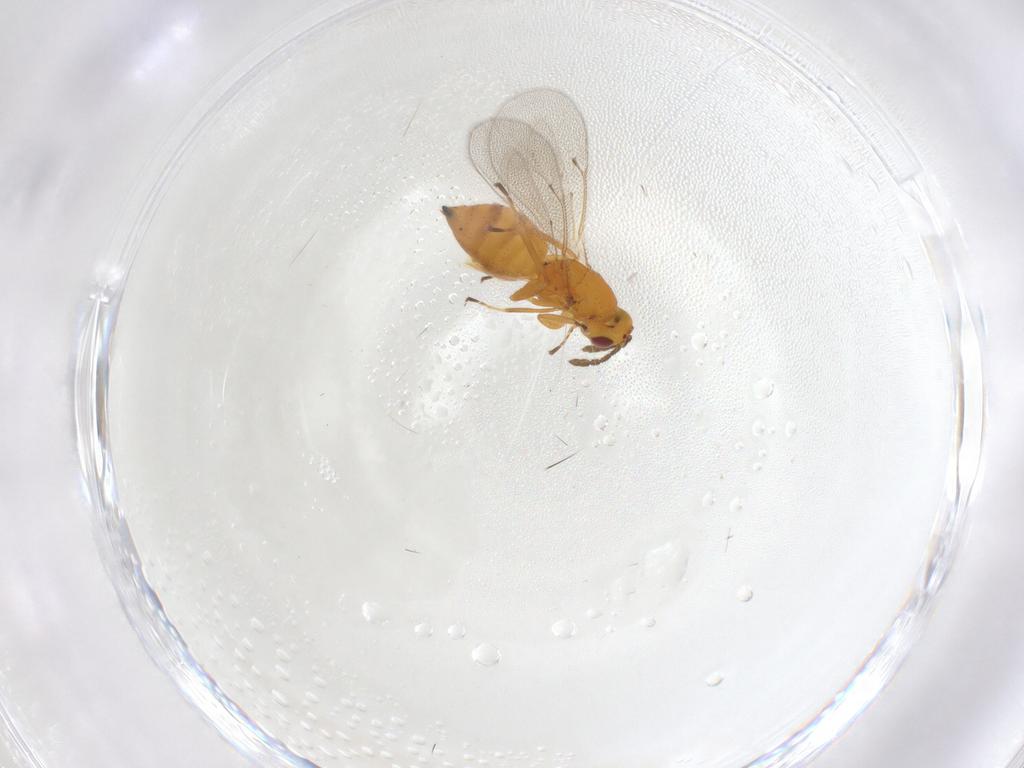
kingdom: Animalia
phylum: Arthropoda
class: Insecta
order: Hymenoptera
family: Eulophidae
